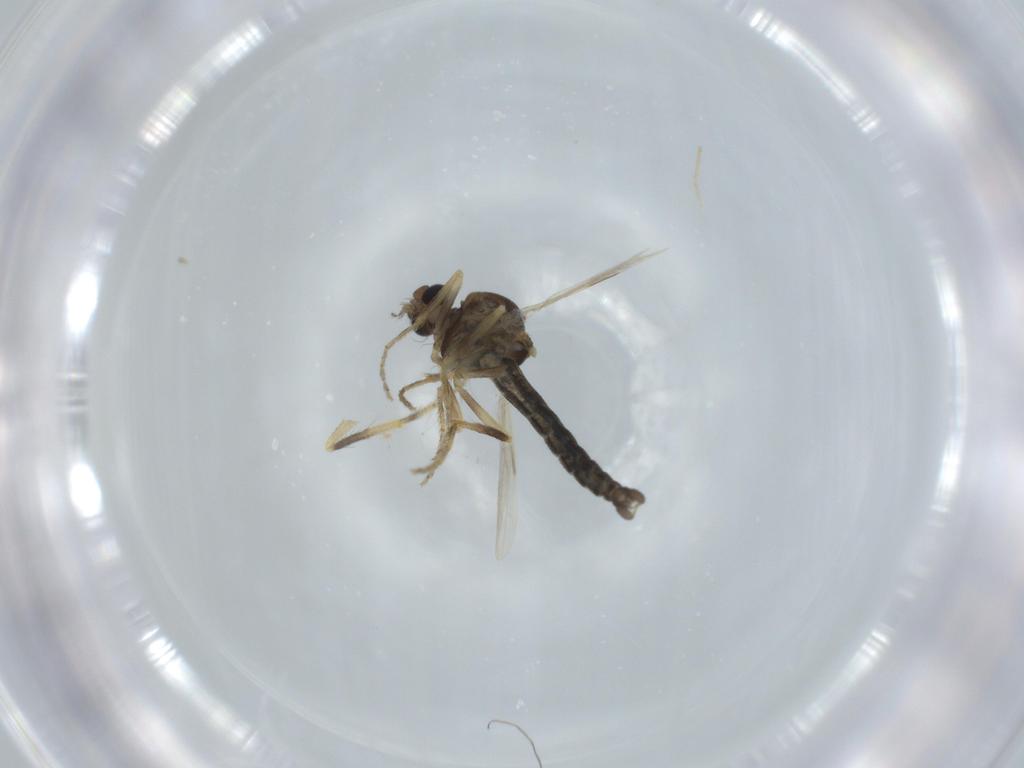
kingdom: Animalia
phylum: Arthropoda
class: Insecta
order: Diptera
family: Ceratopogonidae
